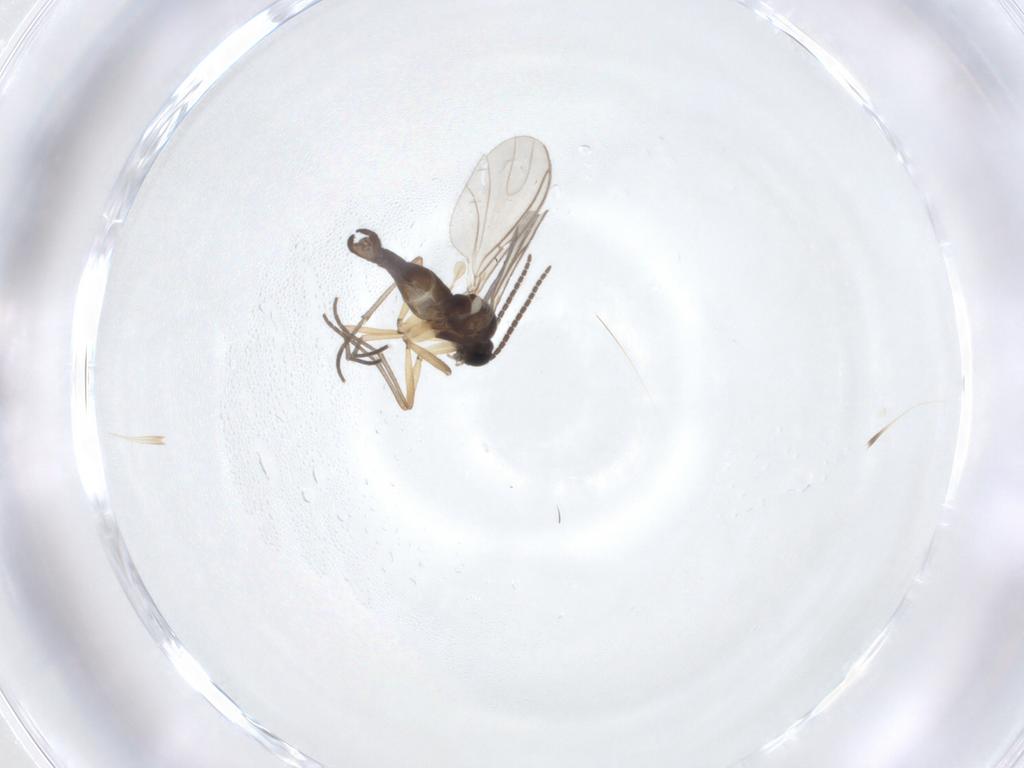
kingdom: Animalia
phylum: Arthropoda
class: Insecta
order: Diptera
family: Sciaridae
